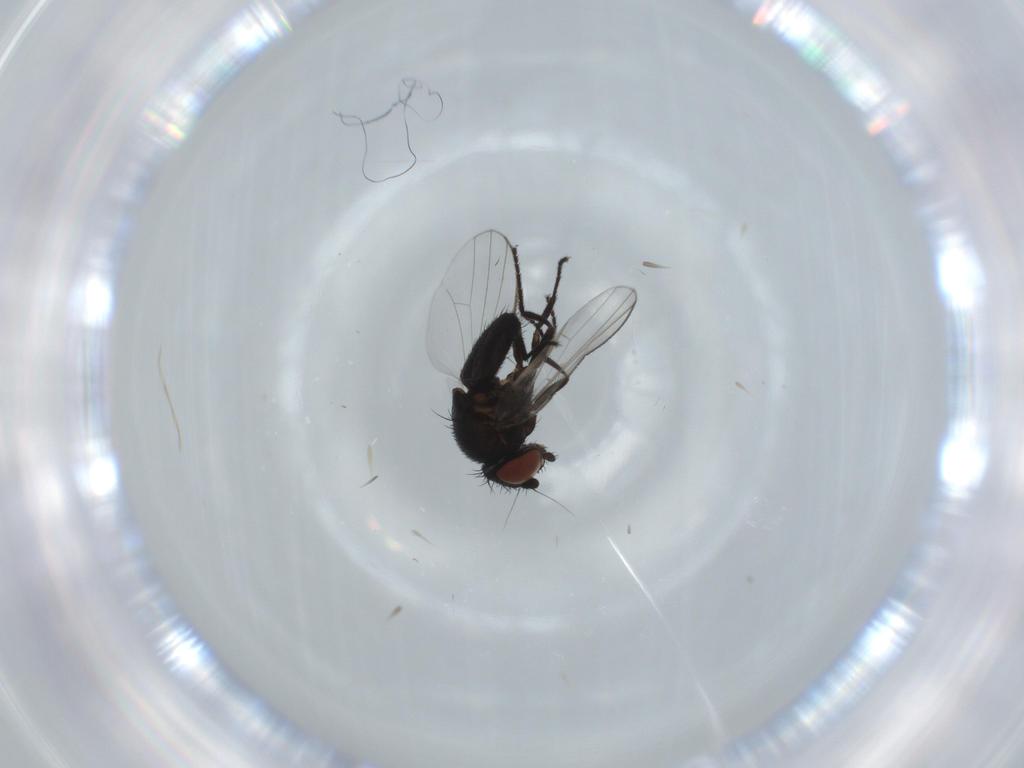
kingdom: Animalia
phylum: Arthropoda
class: Insecta
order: Diptera
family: Milichiidae
